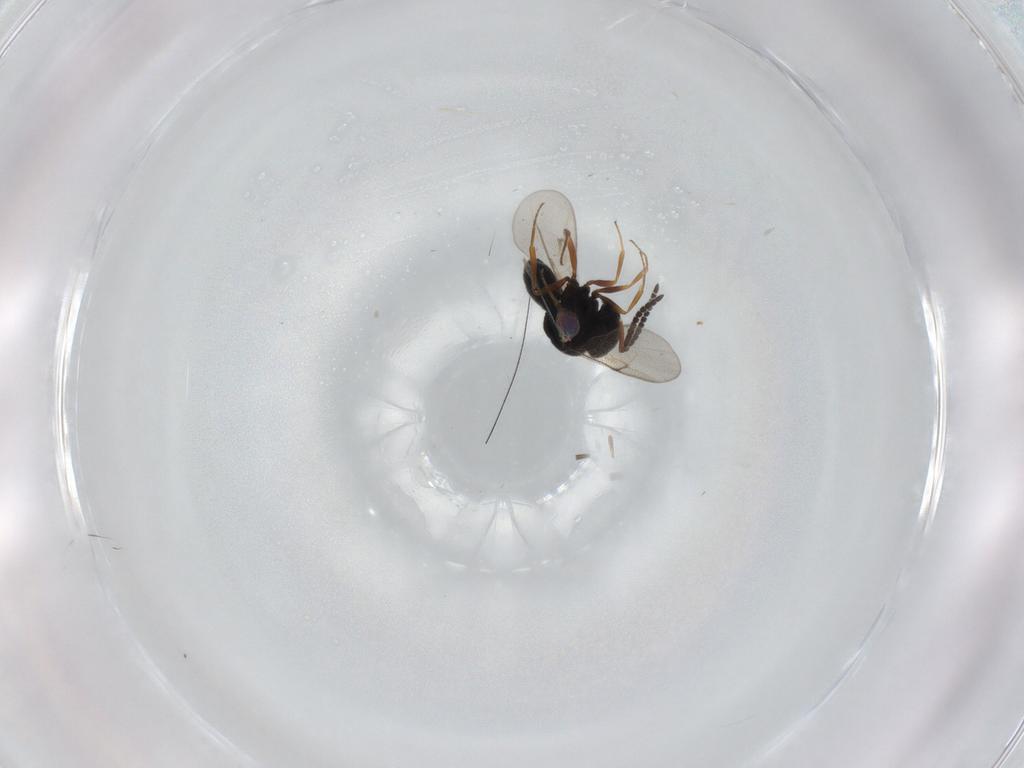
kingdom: Animalia
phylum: Arthropoda
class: Insecta
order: Hymenoptera
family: Scelionidae
